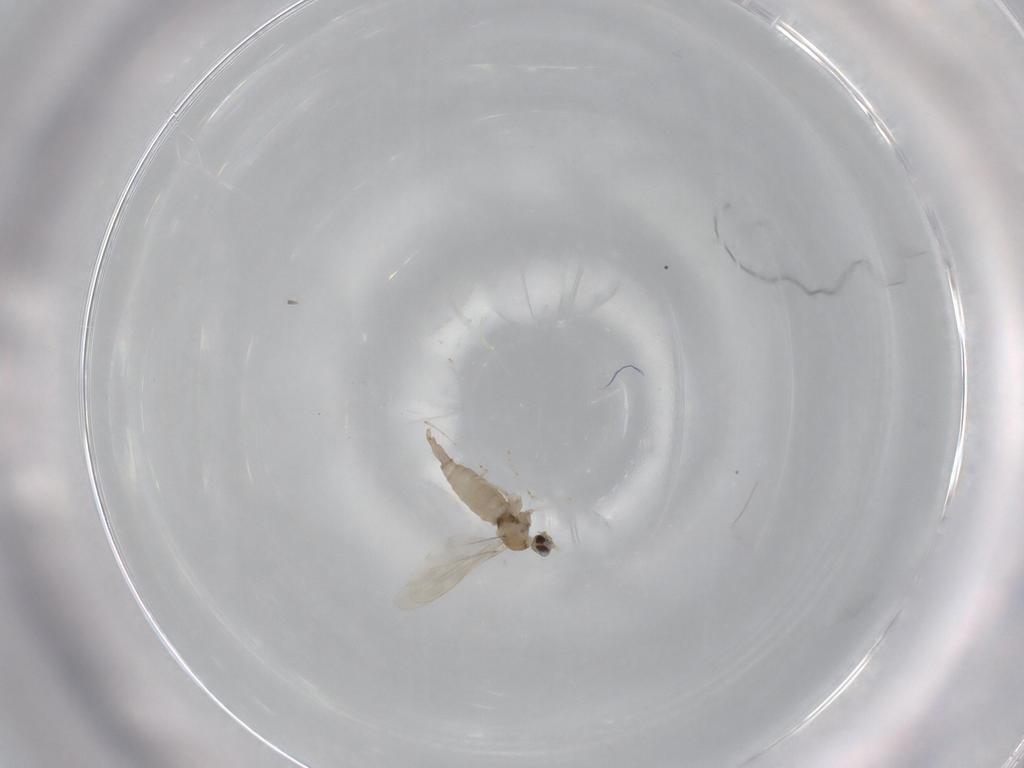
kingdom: Animalia
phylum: Arthropoda
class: Insecta
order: Diptera
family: Cecidomyiidae
